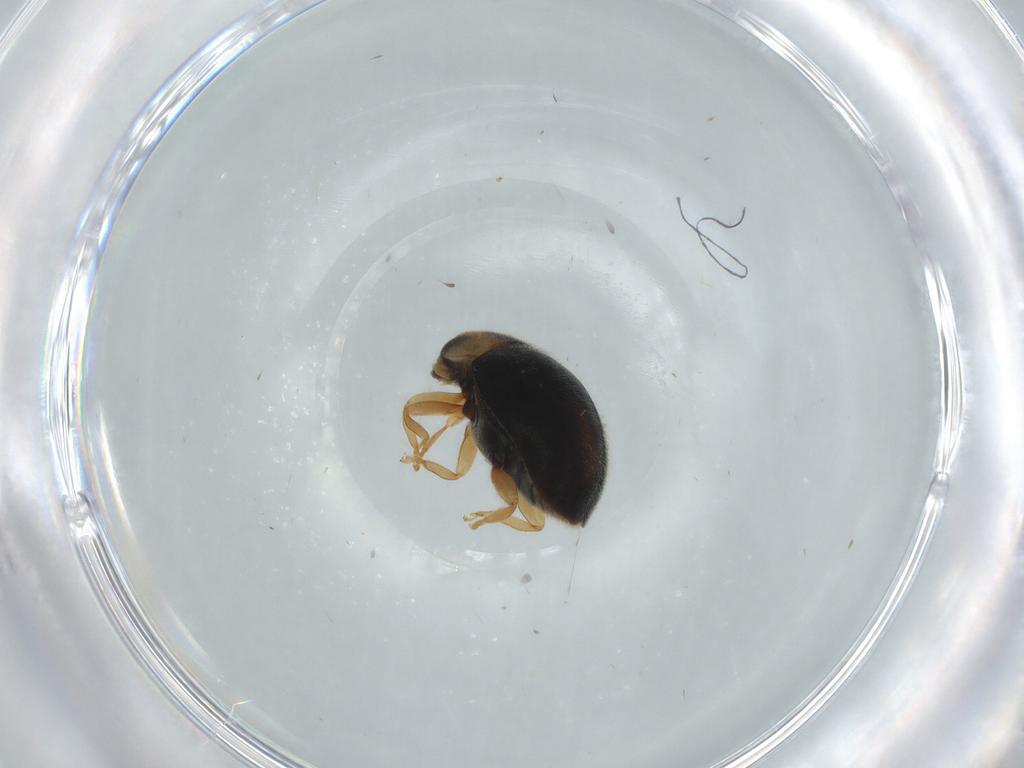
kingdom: Animalia
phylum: Arthropoda
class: Insecta
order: Coleoptera
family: Coccinellidae
